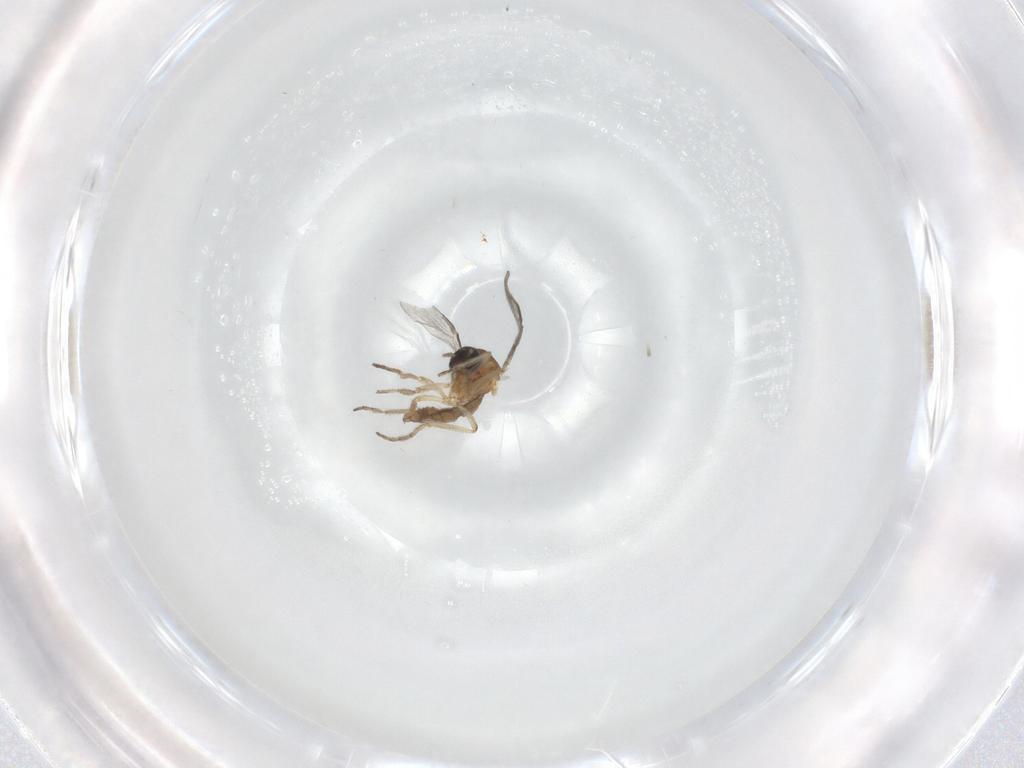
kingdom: Animalia
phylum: Arthropoda
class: Insecta
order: Diptera
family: Ceratopogonidae
